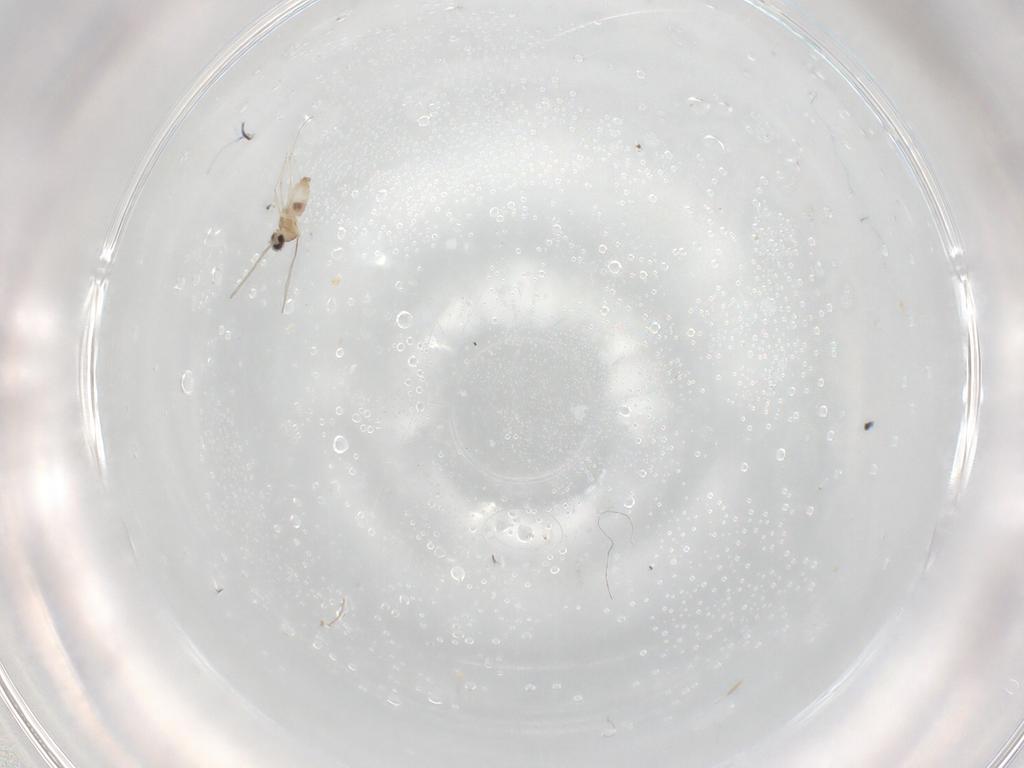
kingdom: Animalia
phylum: Arthropoda
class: Insecta
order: Diptera
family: Cecidomyiidae
